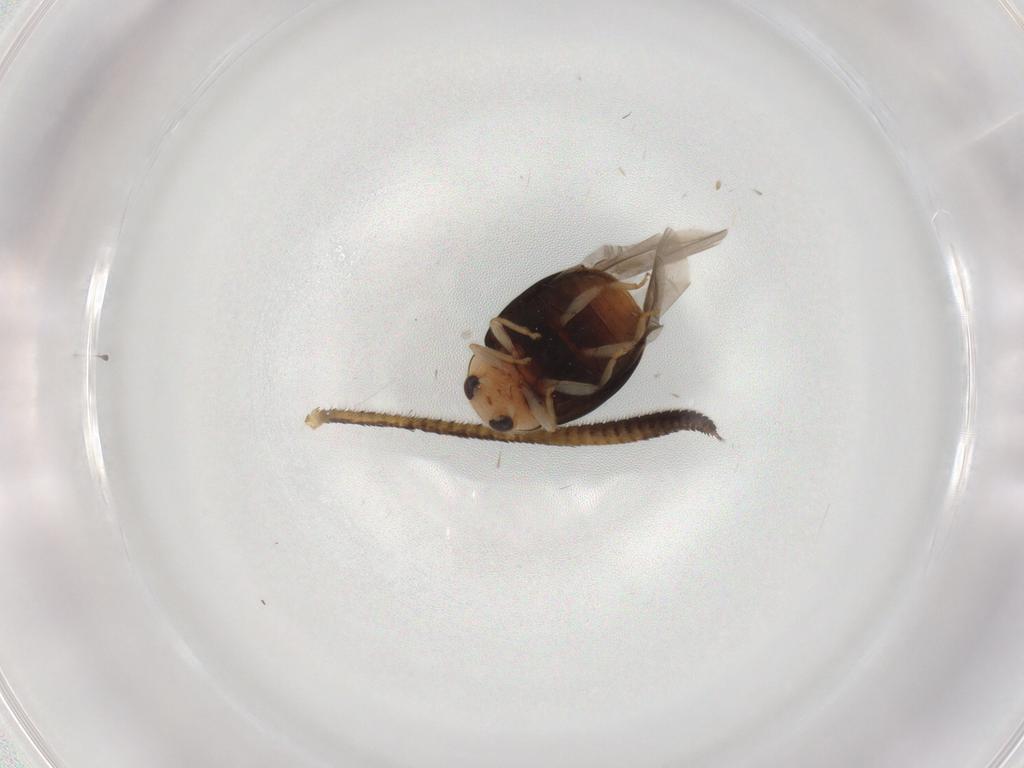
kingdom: Animalia
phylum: Arthropoda
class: Insecta
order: Coleoptera
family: Coccinellidae
